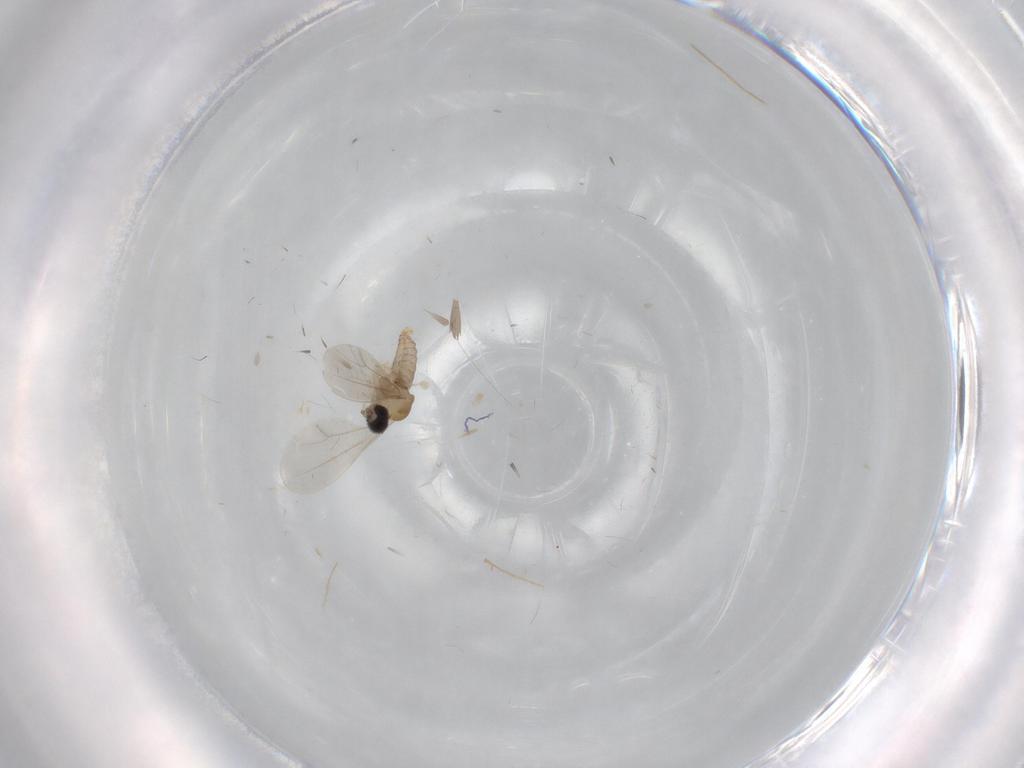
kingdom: Animalia
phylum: Arthropoda
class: Insecta
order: Diptera
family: Cecidomyiidae
